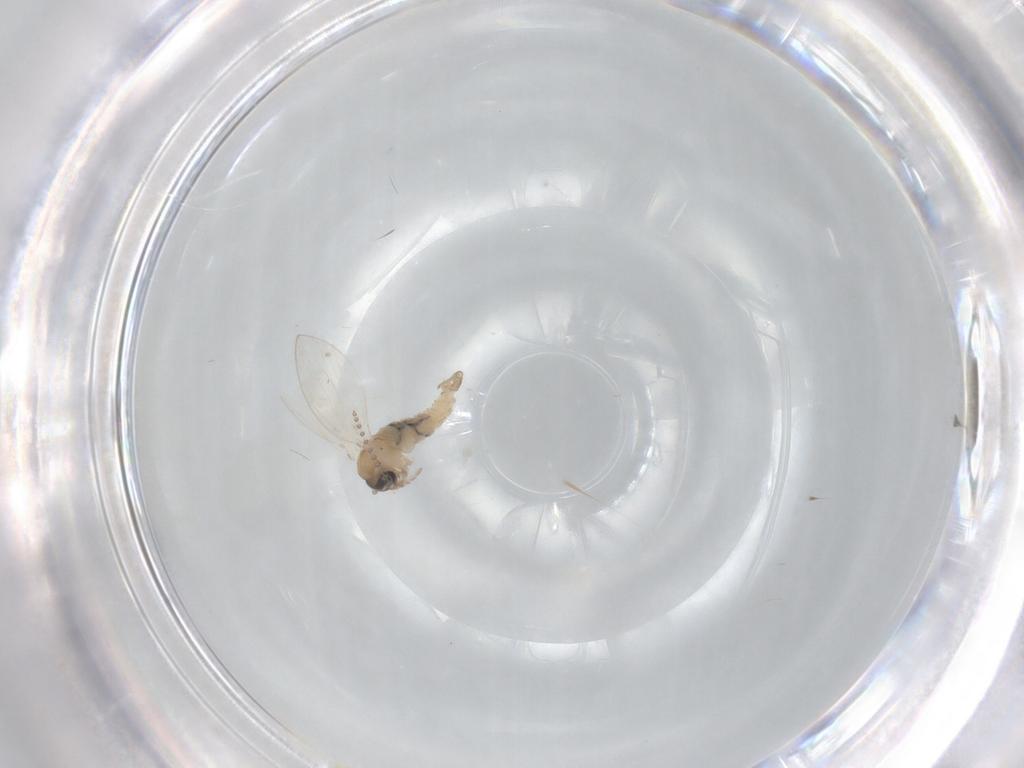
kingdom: Animalia
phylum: Arthropoda
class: Insecta
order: Diptera
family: Psychodidae
